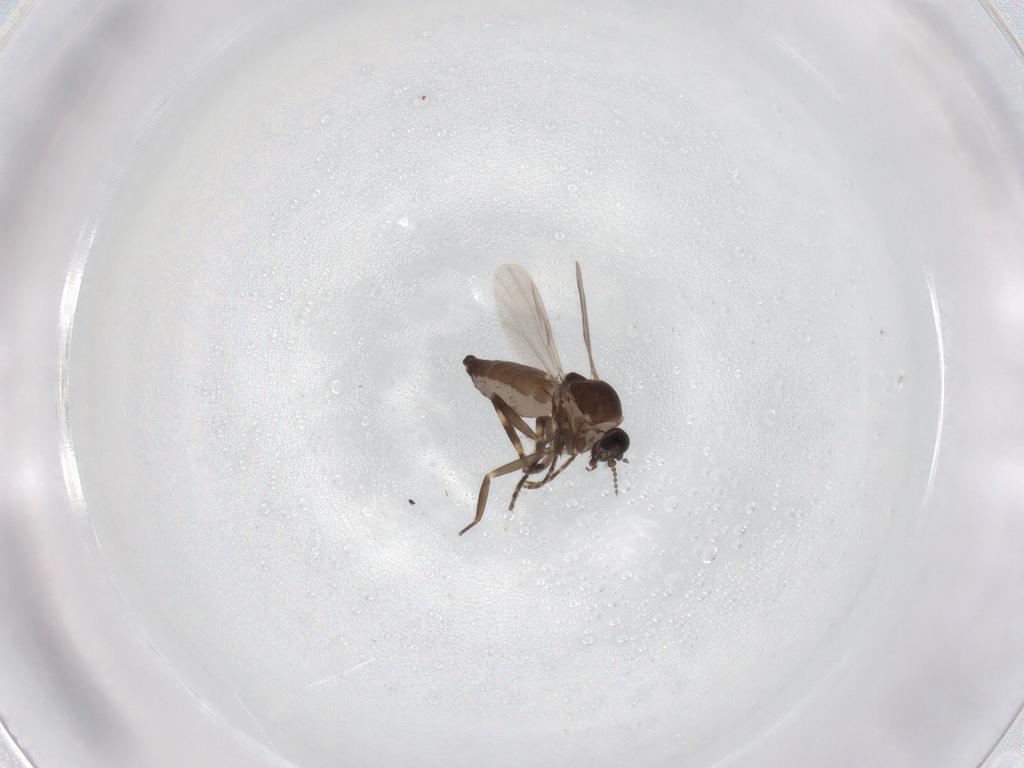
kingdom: Animalia
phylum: Arthropoda
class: Insecta
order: Diptera
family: Ceratopogonidae
